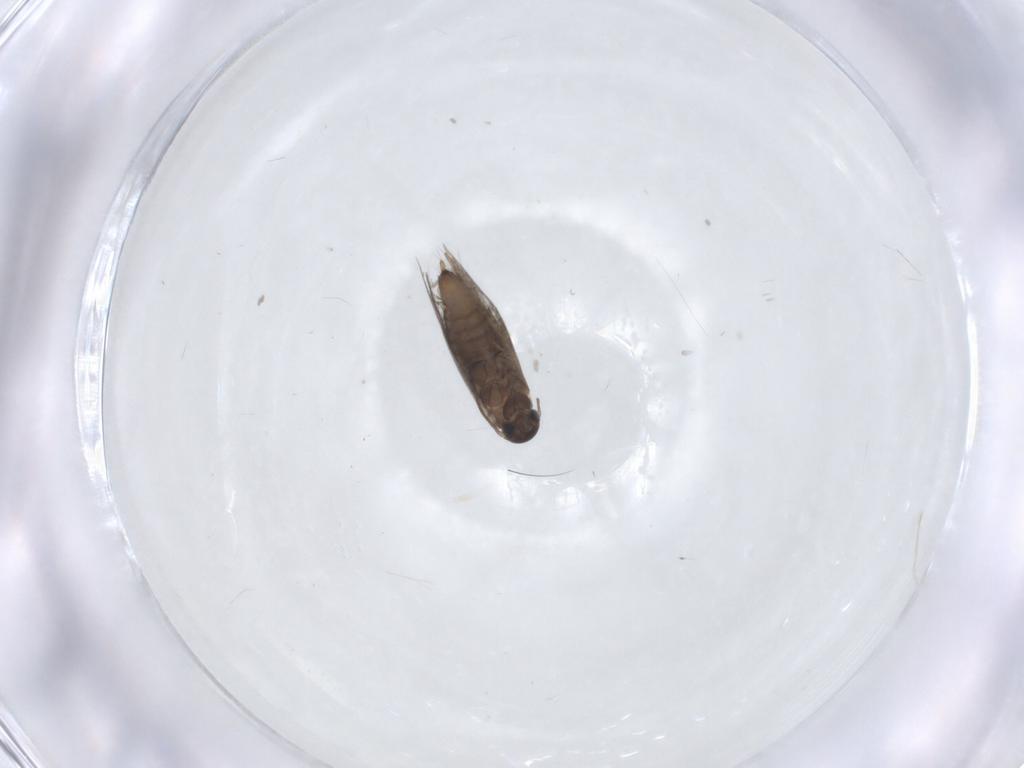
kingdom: Animalia
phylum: Arthropoda
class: Insecta
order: Lepidoptera
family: Heliozelidae
